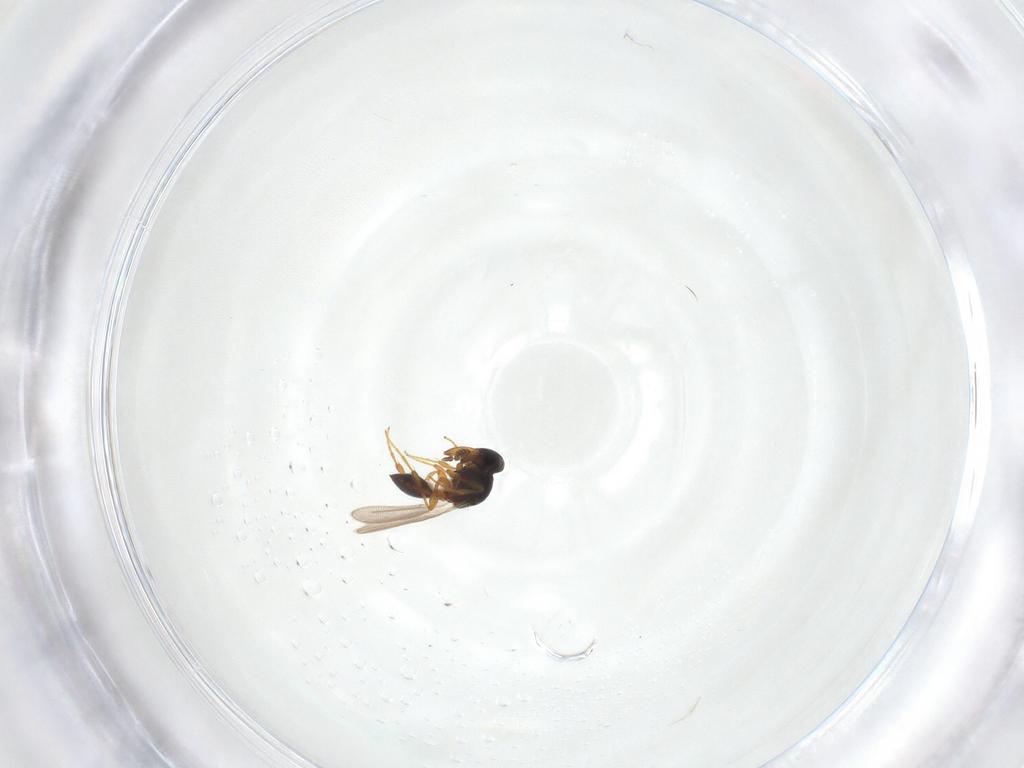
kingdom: Animalia
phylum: Arthropoda
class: Insecta
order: Hymenoptera
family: Platygastridae
